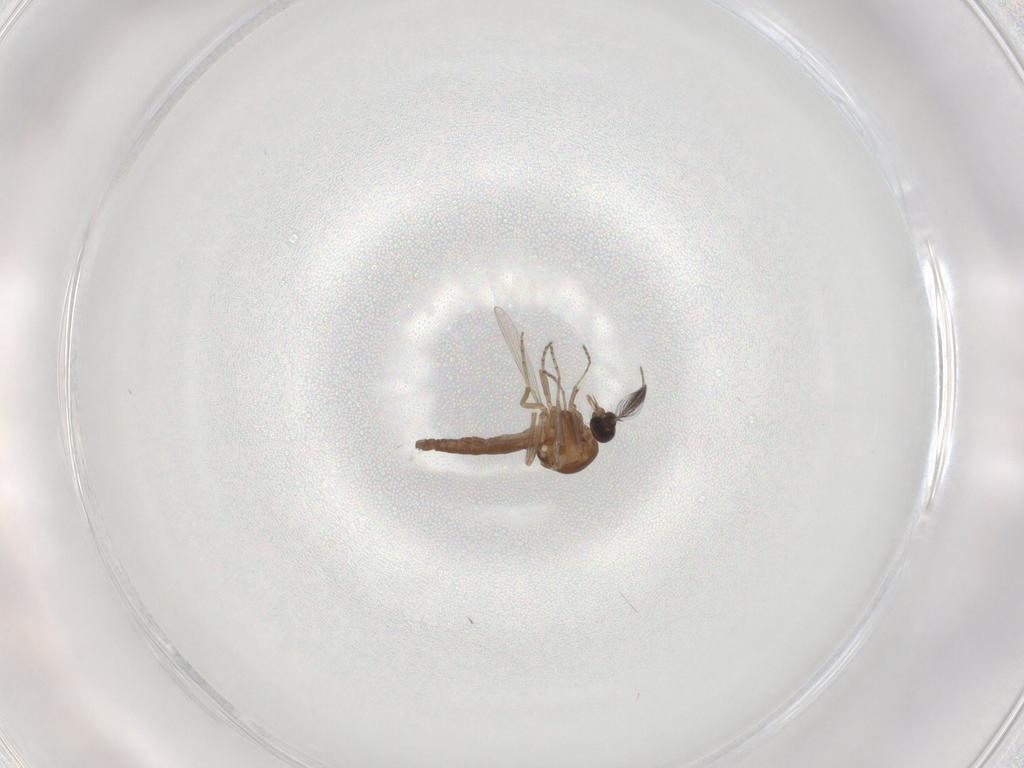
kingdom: Animalia
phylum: Arthropoda
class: Insecta
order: Diptera
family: Ceratopogonidae
